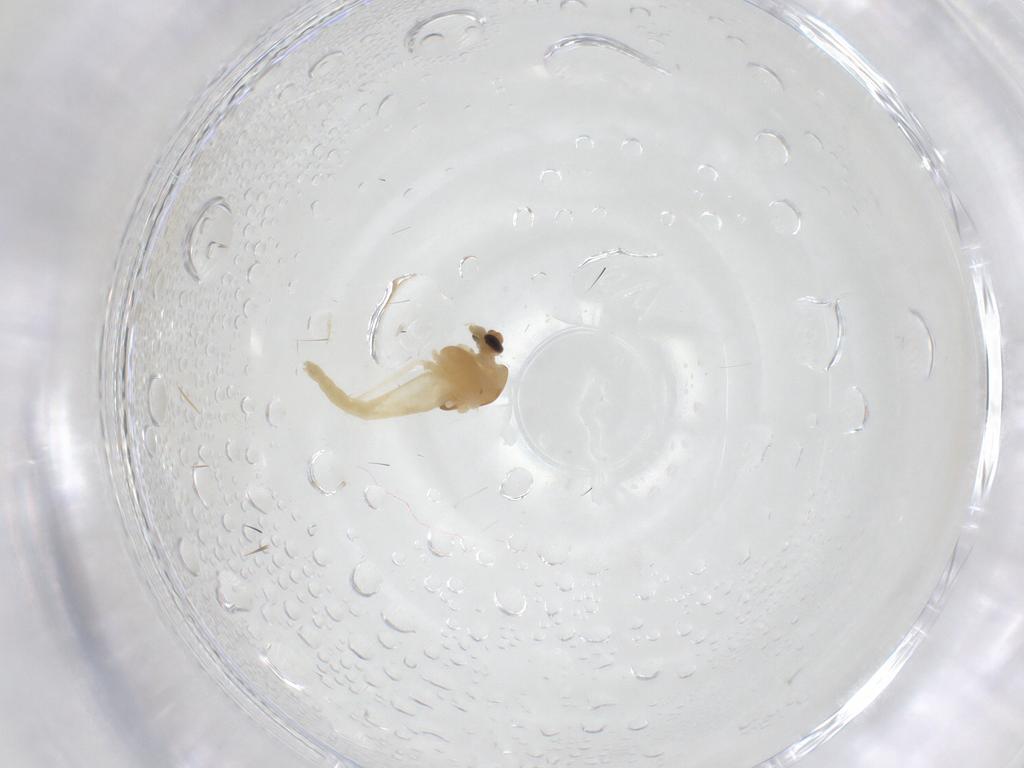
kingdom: Animalia
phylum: Arthropoda
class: Insecta
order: Diptera
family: Chironomidae
